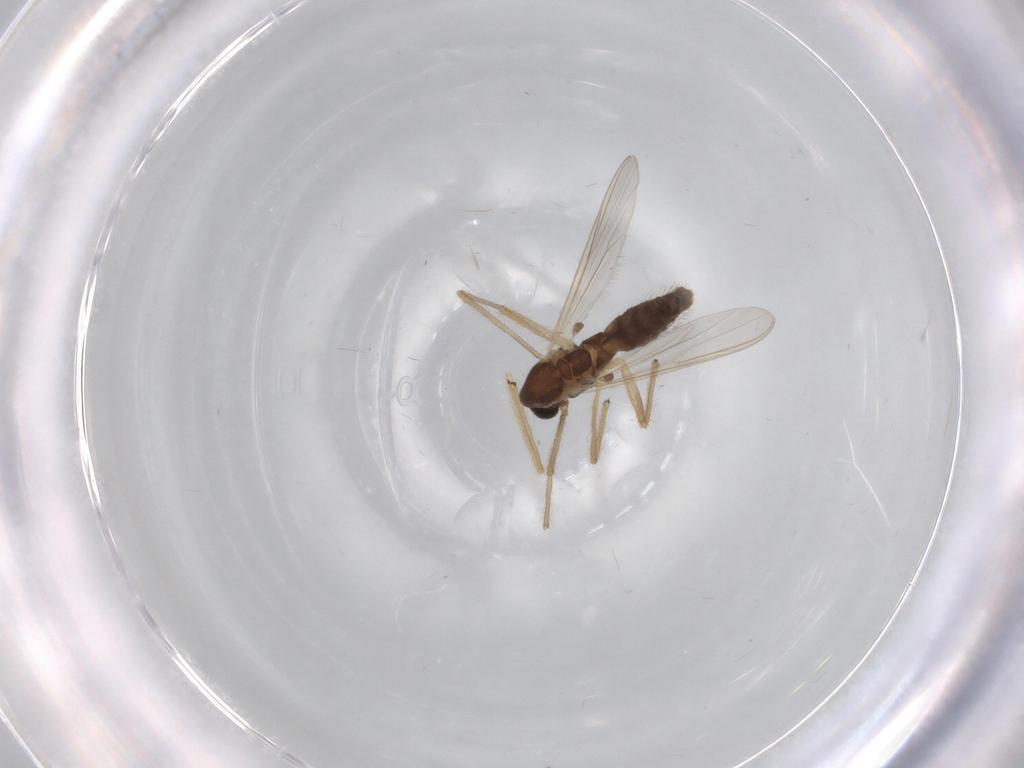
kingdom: Animalia
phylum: Arthropoda
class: Insecta
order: Diptera
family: Chironomidae
